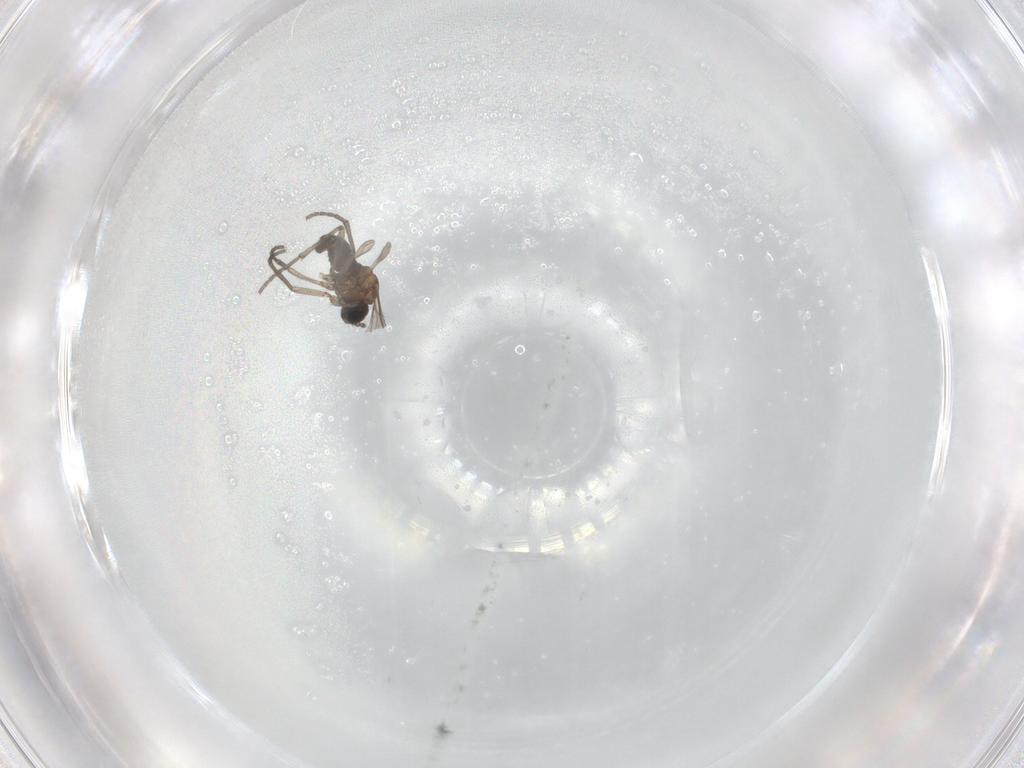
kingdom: Animalia
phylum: Arthropoda
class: Insecta
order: Diptera
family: Sciaridae
